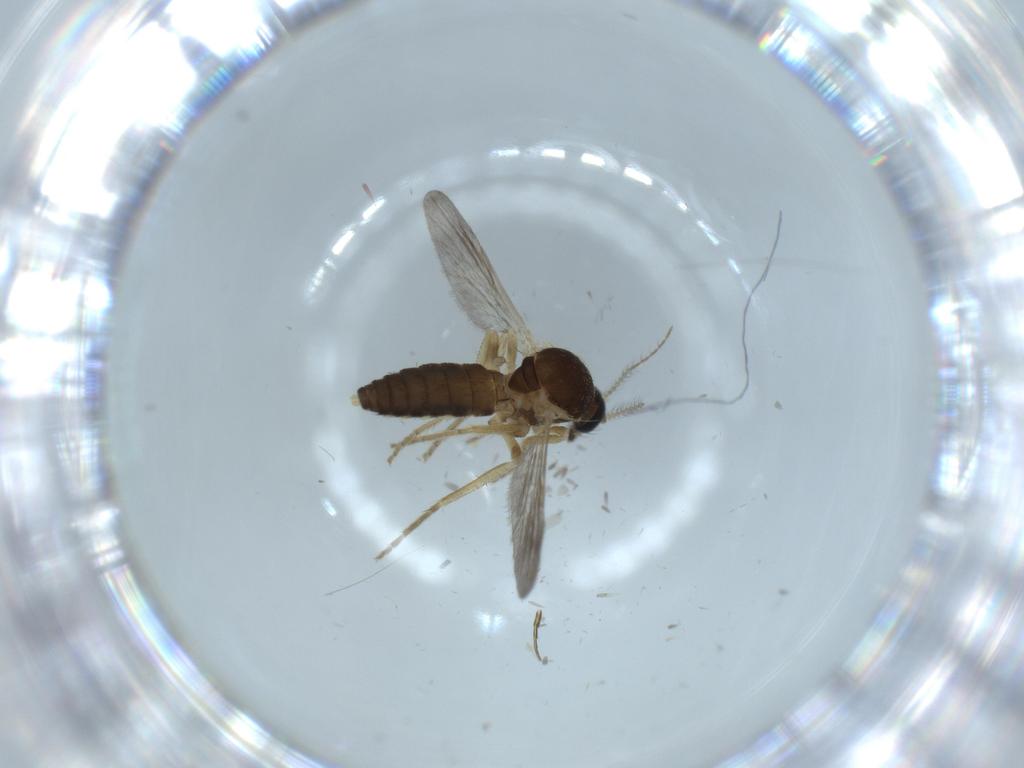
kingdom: Animalia
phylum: Arthropoda
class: Insecta
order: Diptera
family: Ceratopogonidae
